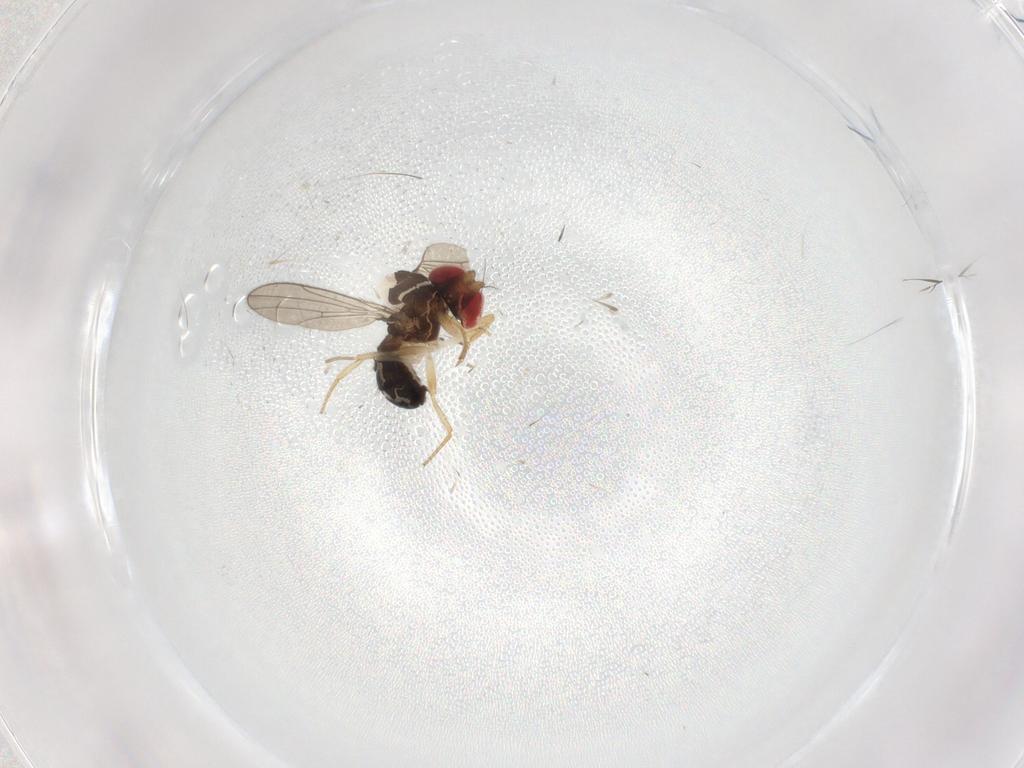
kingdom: Animalia
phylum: Arthropoda
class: Insecta
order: Diptera
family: Drosophilidae
